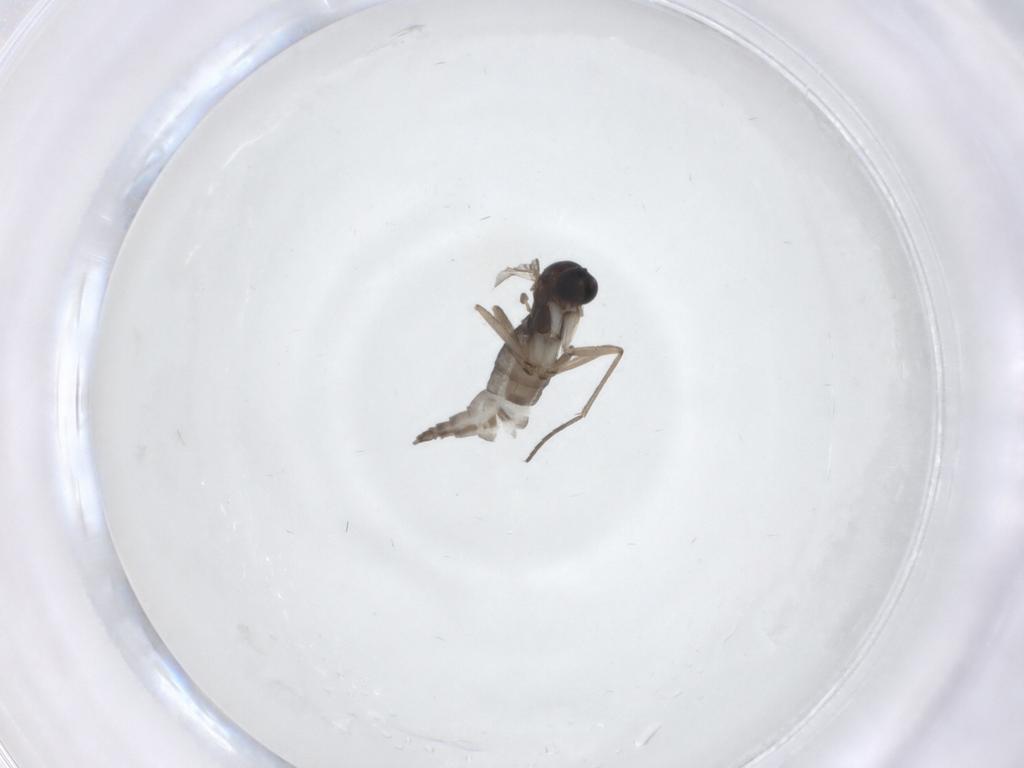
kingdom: Animalia
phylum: Arthropoda
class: Insecta
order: Diptera
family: Sciaridae
